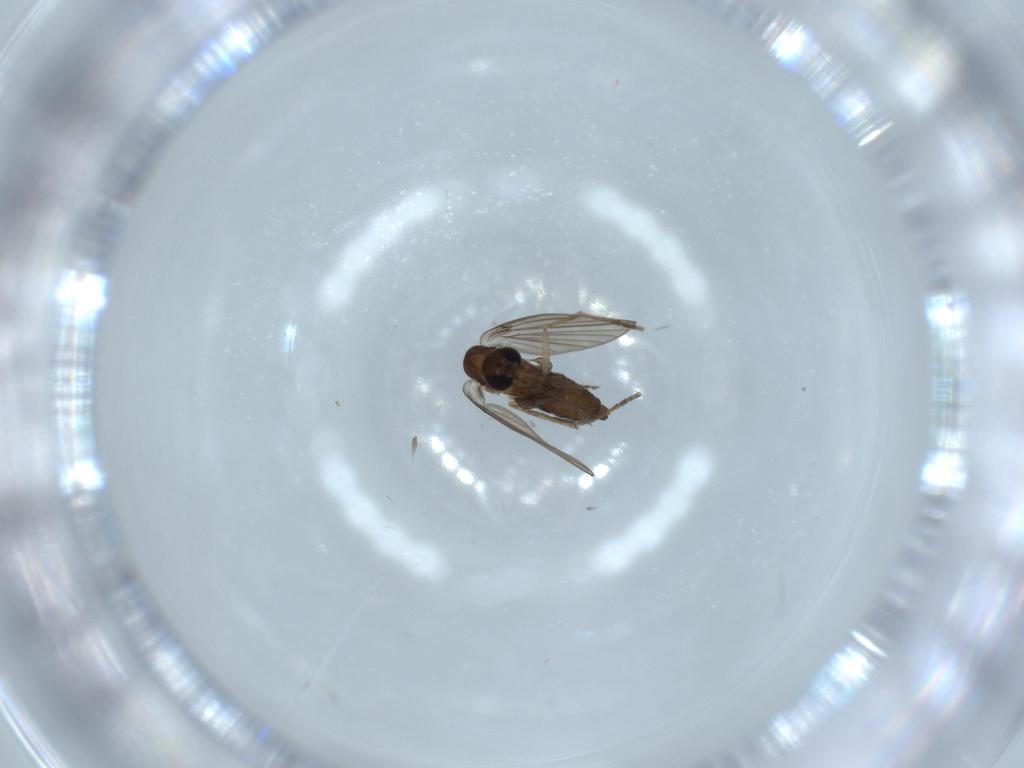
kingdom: Animalia
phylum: Arthropoda
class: Insecta
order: Diptera
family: Psychodidae
